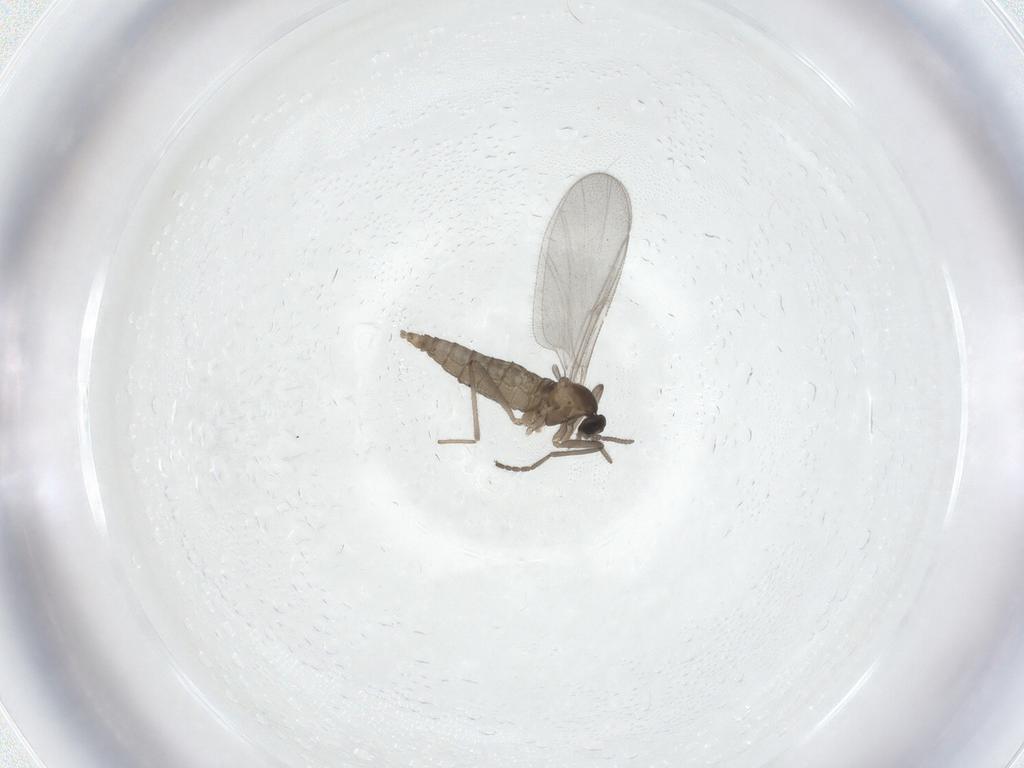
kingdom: Animalia
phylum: Arthropoda
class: Insecta
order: Diptera
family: Cecidomyiidae
